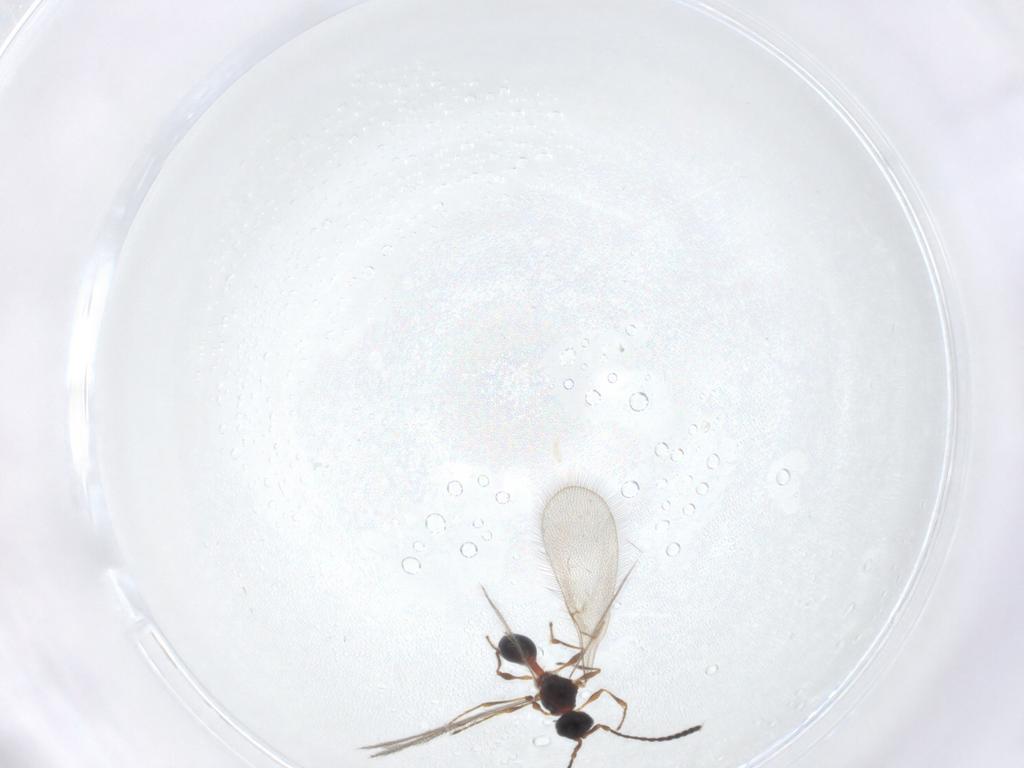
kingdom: Animalia
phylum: Arthropoda
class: Insecta
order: Hymenoptera
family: Diapriidae
